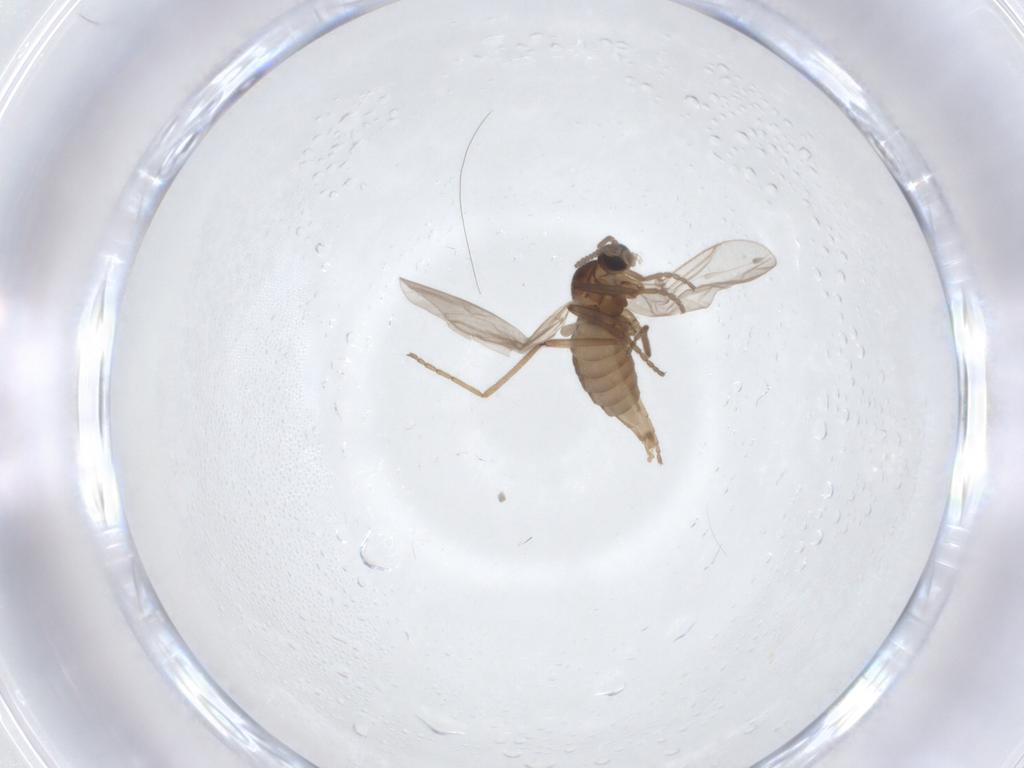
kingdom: Animalia
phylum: Arthropoda
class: Insecta
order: Diptera
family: Cecidomyiidae
